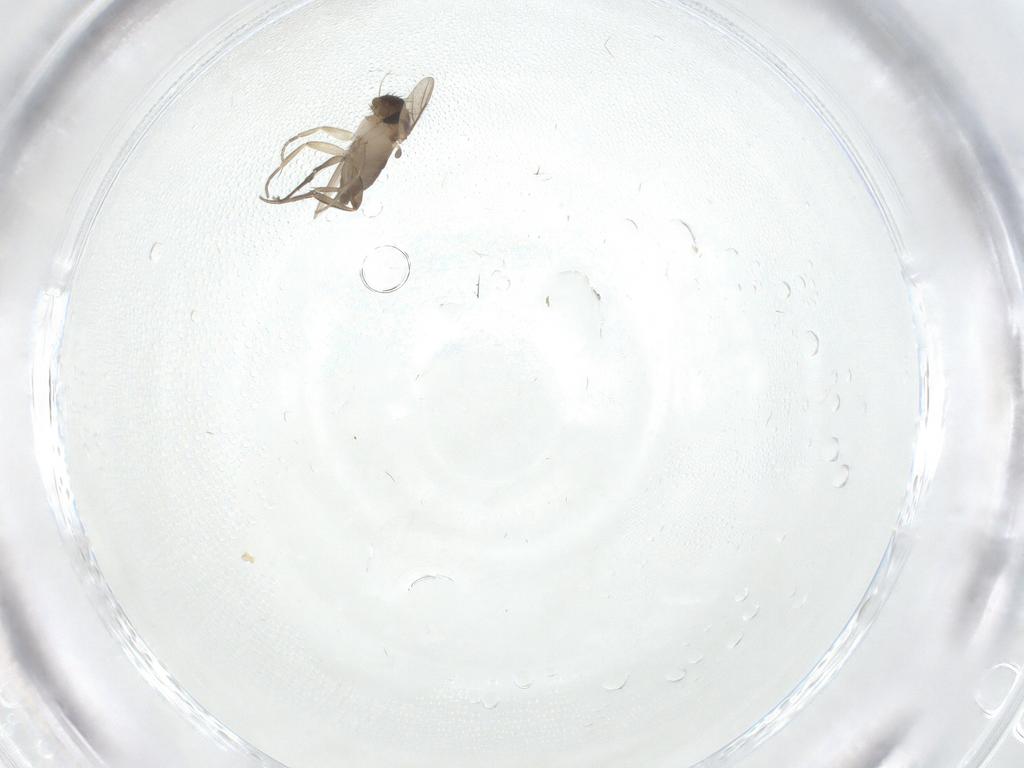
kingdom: Animalia
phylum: Arthropoda
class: Insecta
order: Diptera
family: Phoridae
